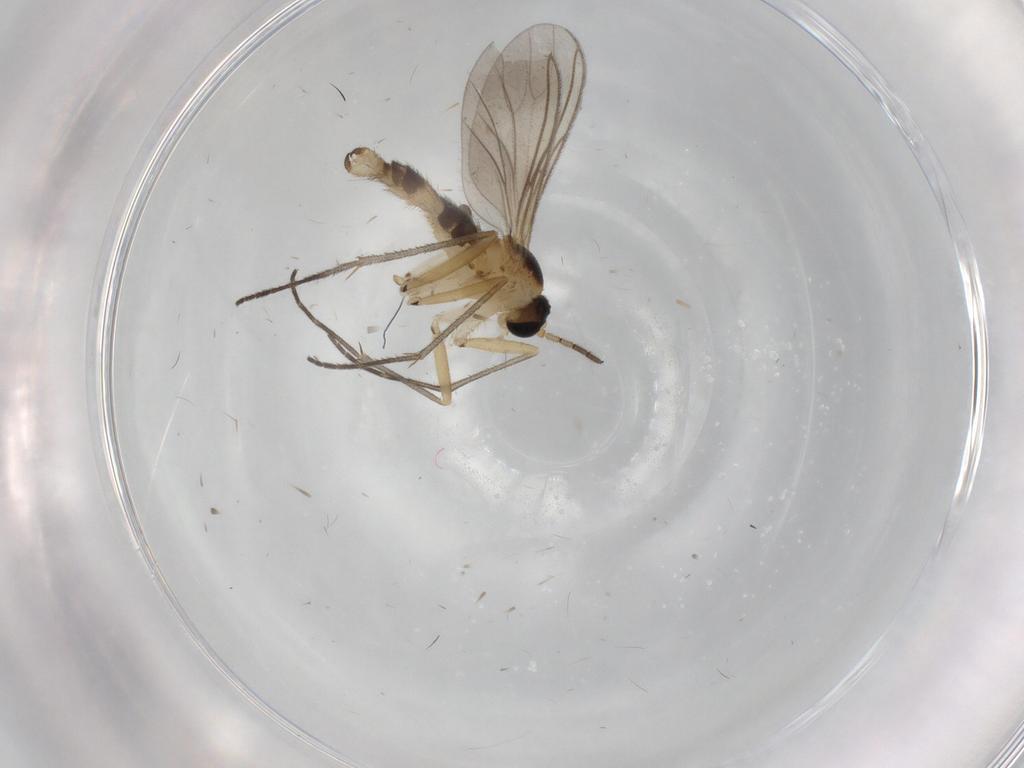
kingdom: Animalia
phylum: Arthropoda
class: Insecta
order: Diptera
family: Sciaridae
